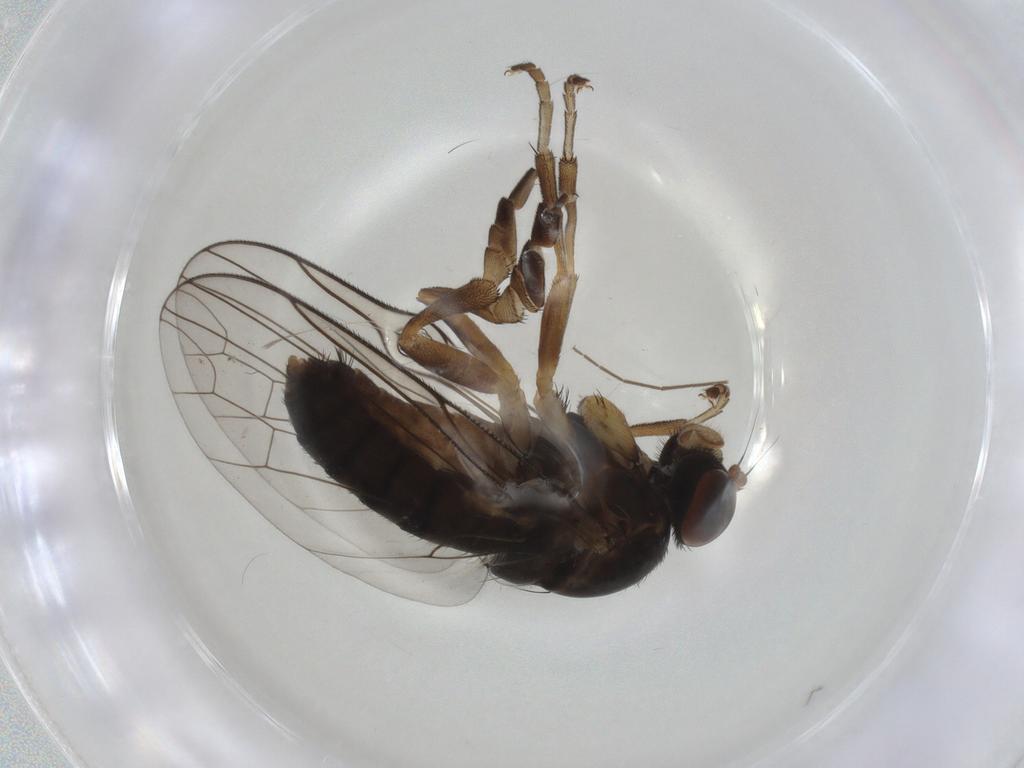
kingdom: Animalia
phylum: Arthropoda
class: Insecta
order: Diptera
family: Platypezidae
